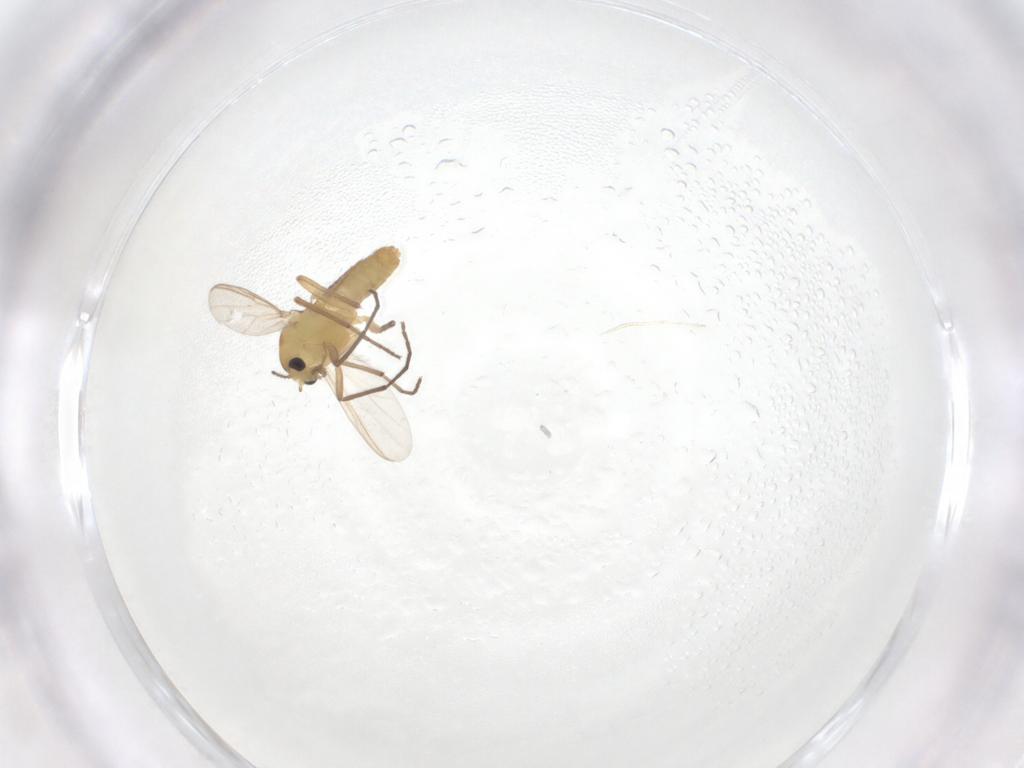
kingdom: Animalia
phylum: Arthropoda
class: Insecta
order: Diptera
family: Chironomidae
